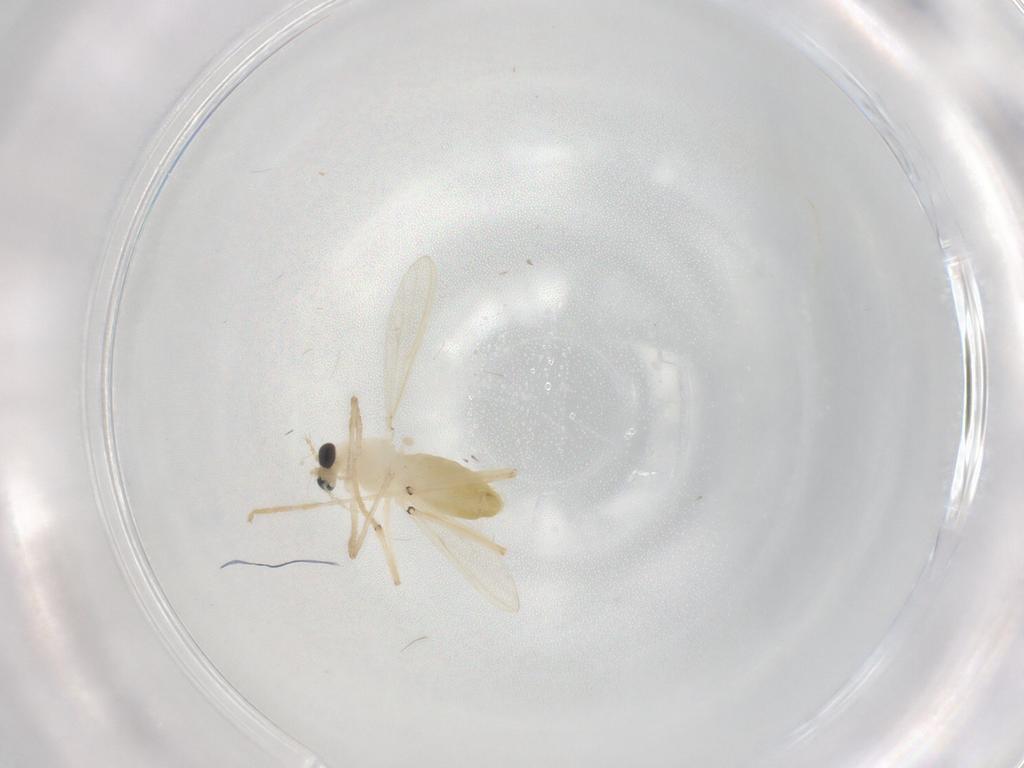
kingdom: Animalia
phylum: Arthropoda
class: Insecta
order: Diptera
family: Chironomidae
